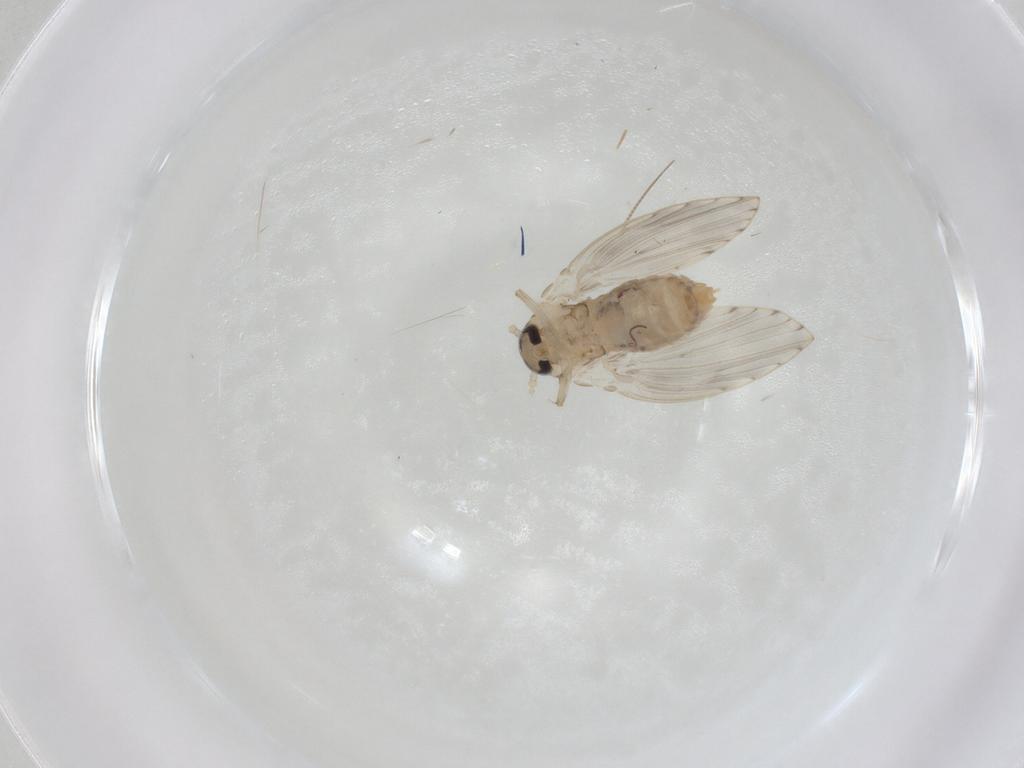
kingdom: Animalia
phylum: Arthropoda
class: Insecta
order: Diptera
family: Psychodidae
